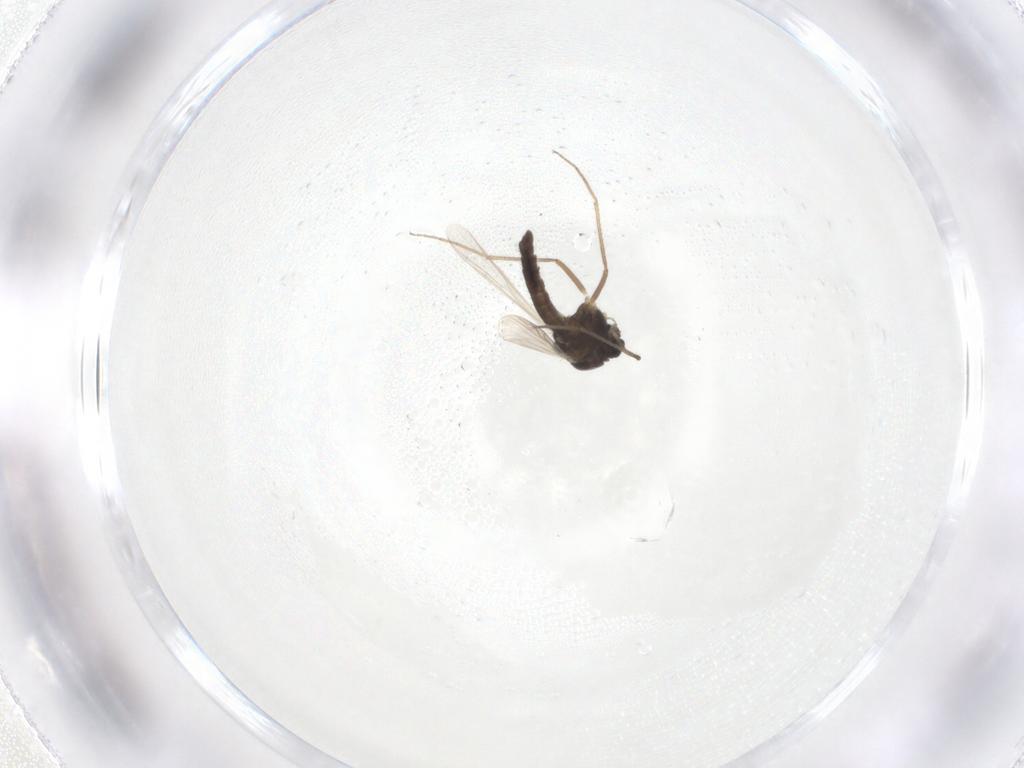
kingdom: Animalia
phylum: Arthropoda
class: Insecta
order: Diptera
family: Chironomidae
